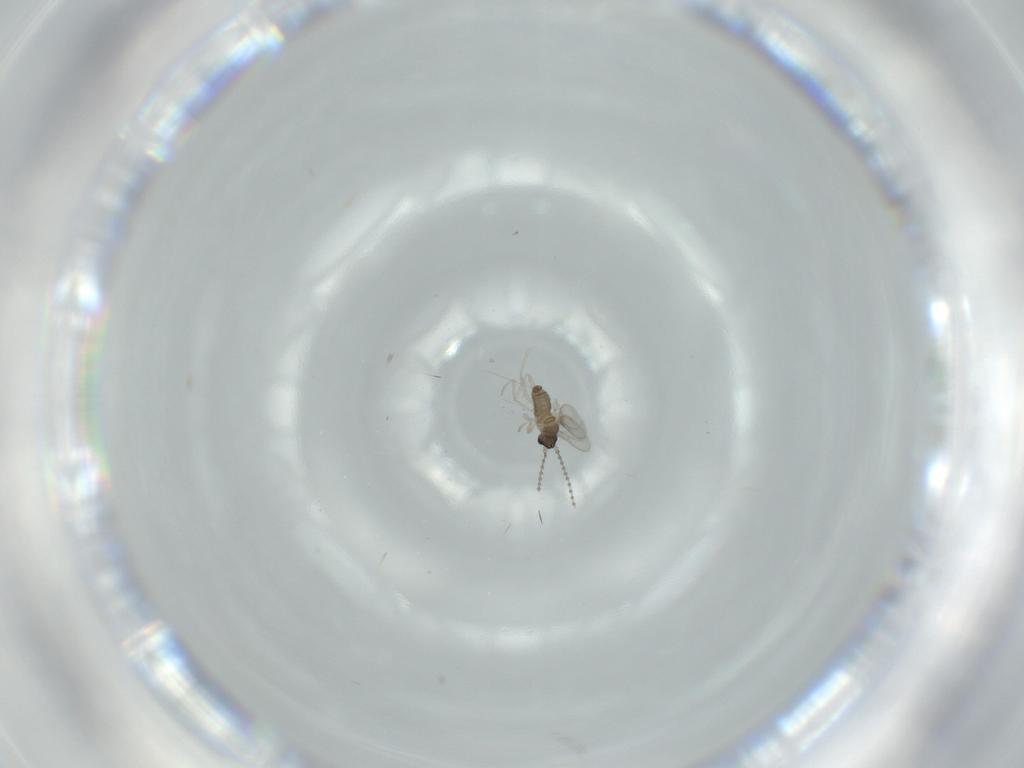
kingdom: Animalia
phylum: Arthropoda
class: Insecta
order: Diptera
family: Cecidomyiidae
